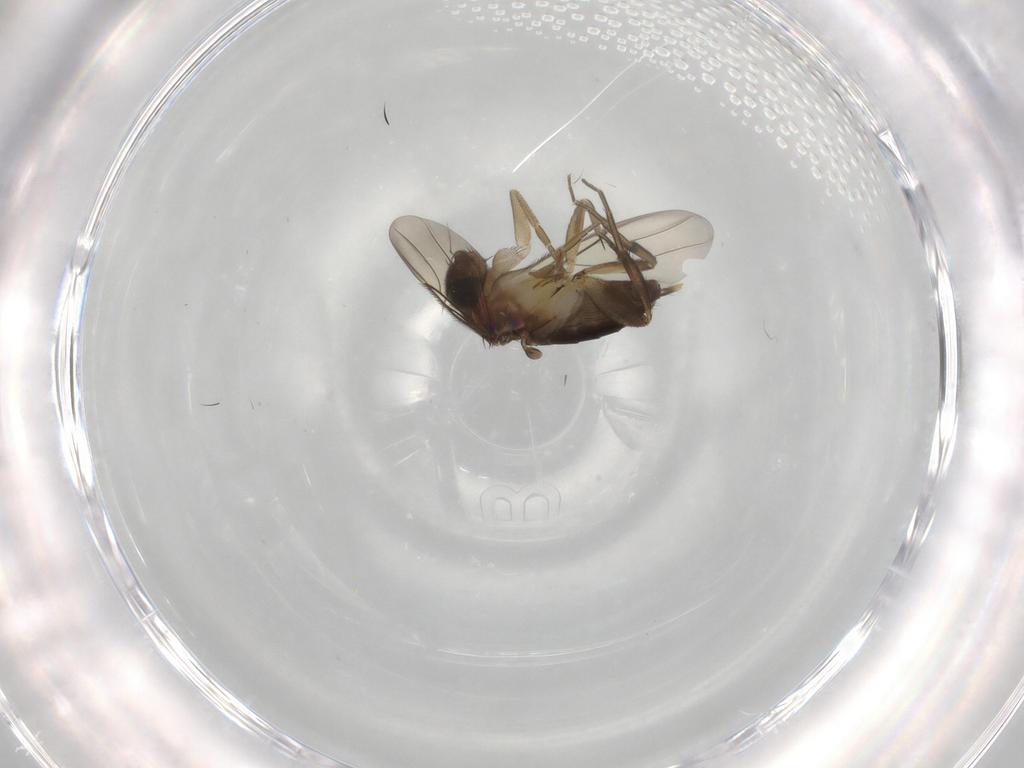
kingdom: Animalia
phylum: Arthropoda
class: Insecta
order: Diptera
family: Phoridae
